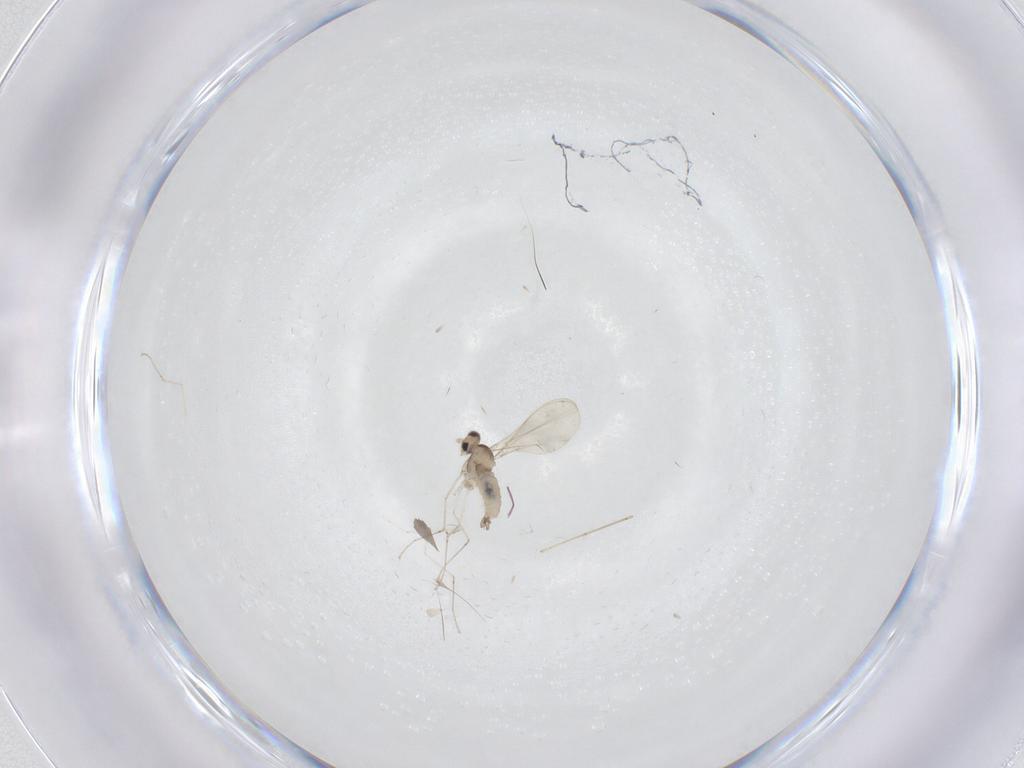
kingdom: Animalia
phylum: Arthropoda
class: Insecta
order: Diptera
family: Cecidomyiidae
